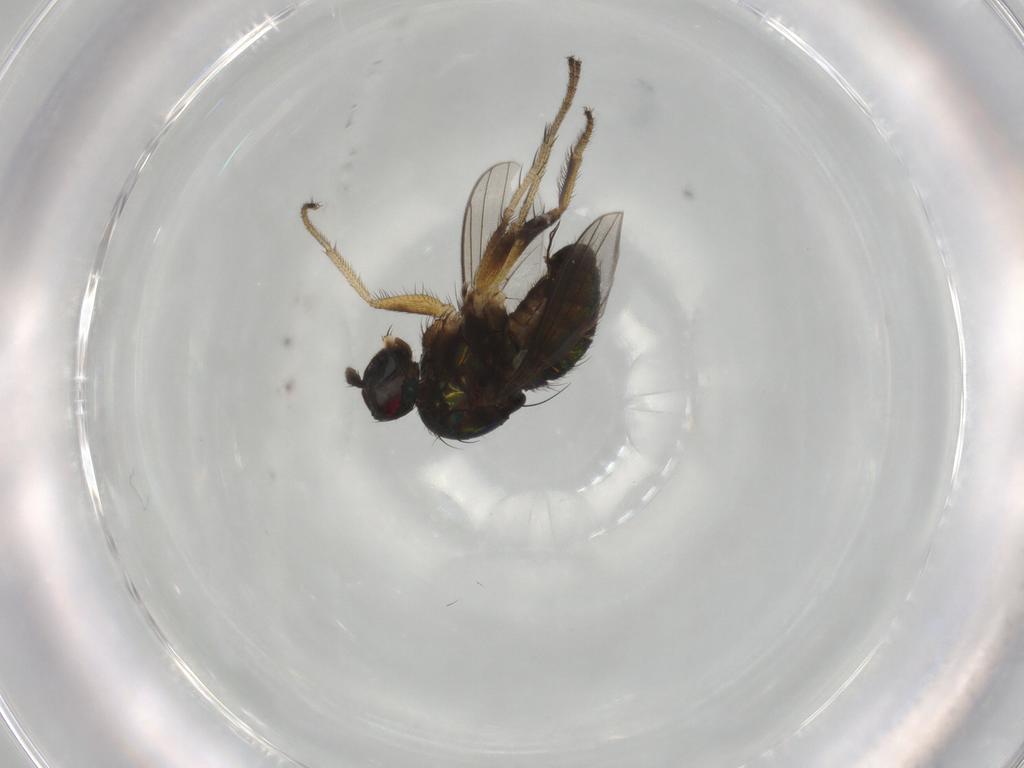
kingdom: Animalia
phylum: Arthropoda
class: Insecta
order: Diptera
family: Dolichopodidae
